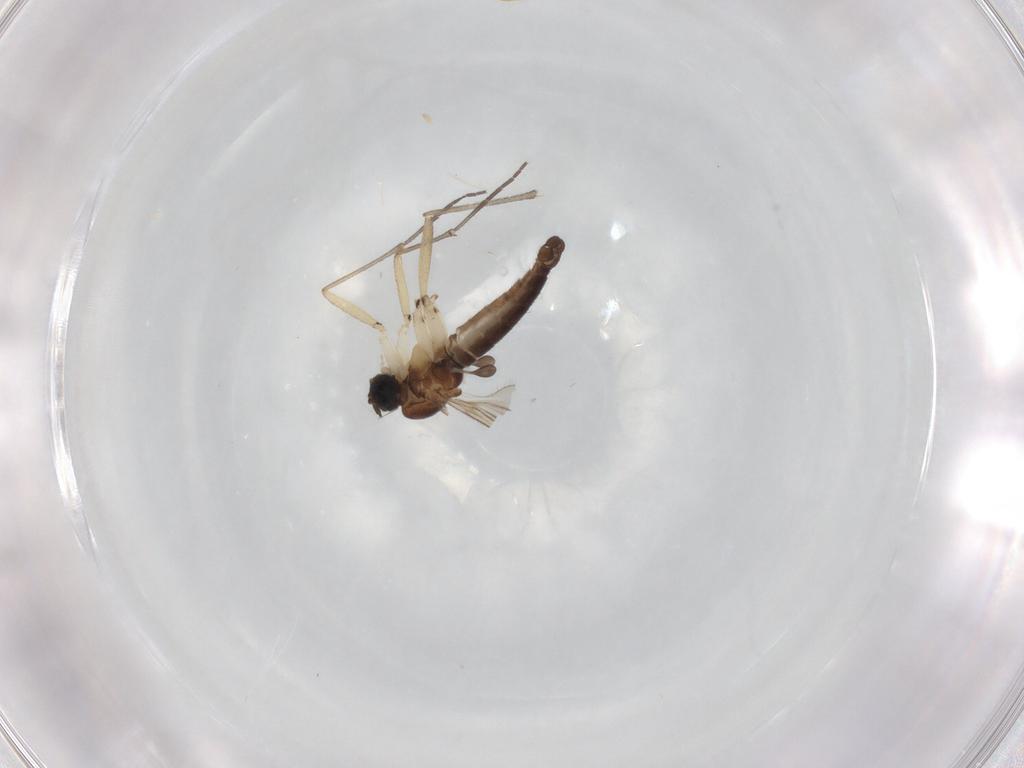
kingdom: Animalia
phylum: Arthropoda
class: Insecta
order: Diptera
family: Sciaridae
